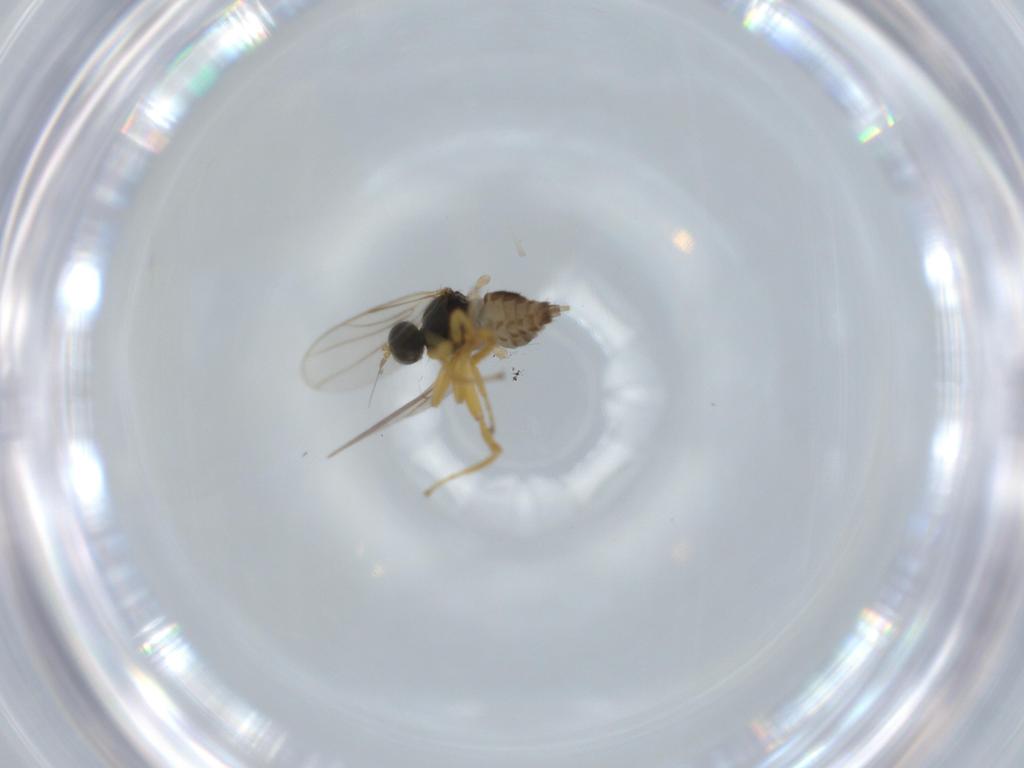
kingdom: Animalia
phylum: Arthropoda
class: Insecta
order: Diptera
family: Hybotidae
